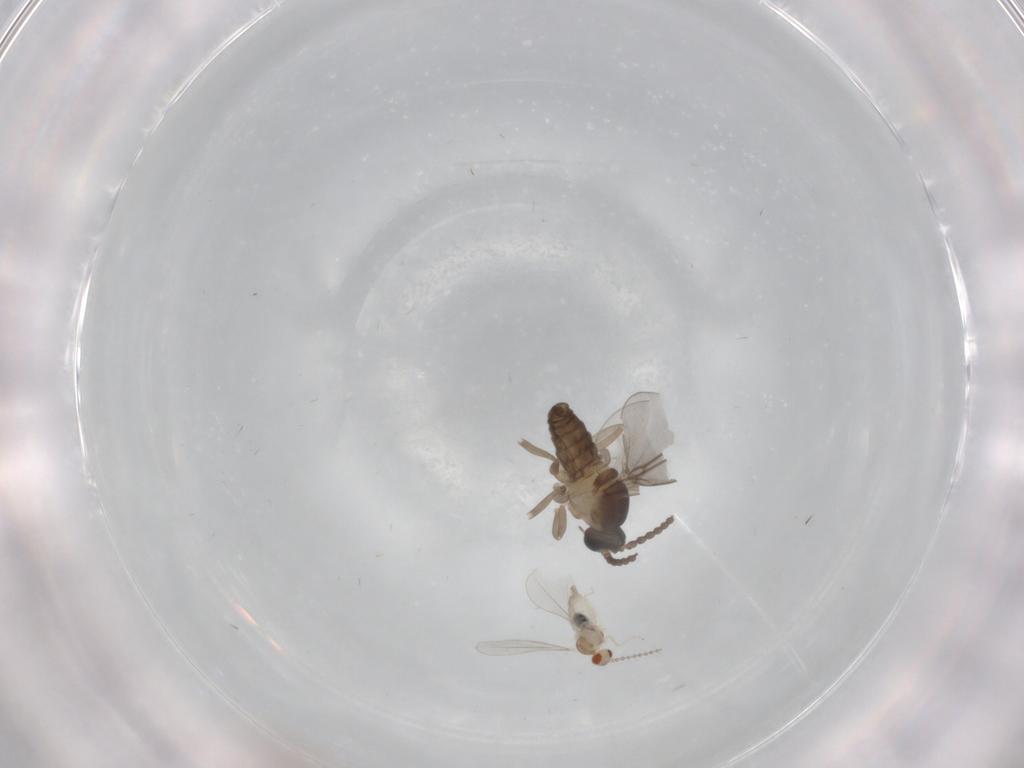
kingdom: Animalia
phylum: Arthropoda
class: Insecta
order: Diptera
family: Cecidomyiidae
